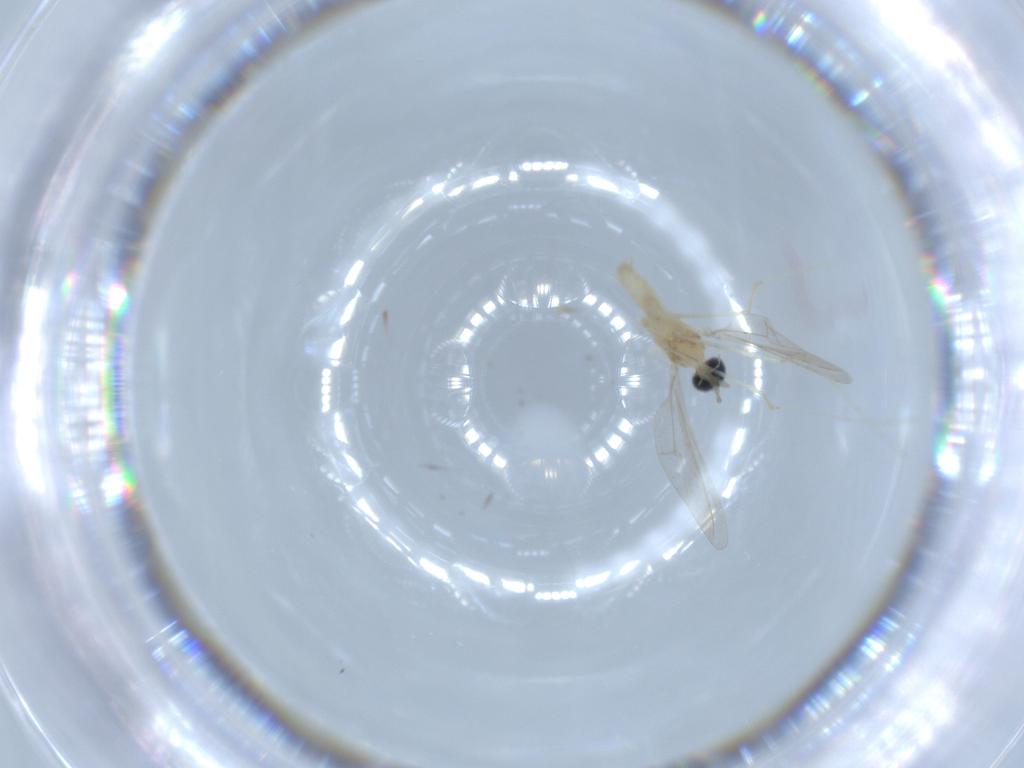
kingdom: Animalia
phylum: Arthropoda
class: Insecta
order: Diptera
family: Cecidomyiidae
